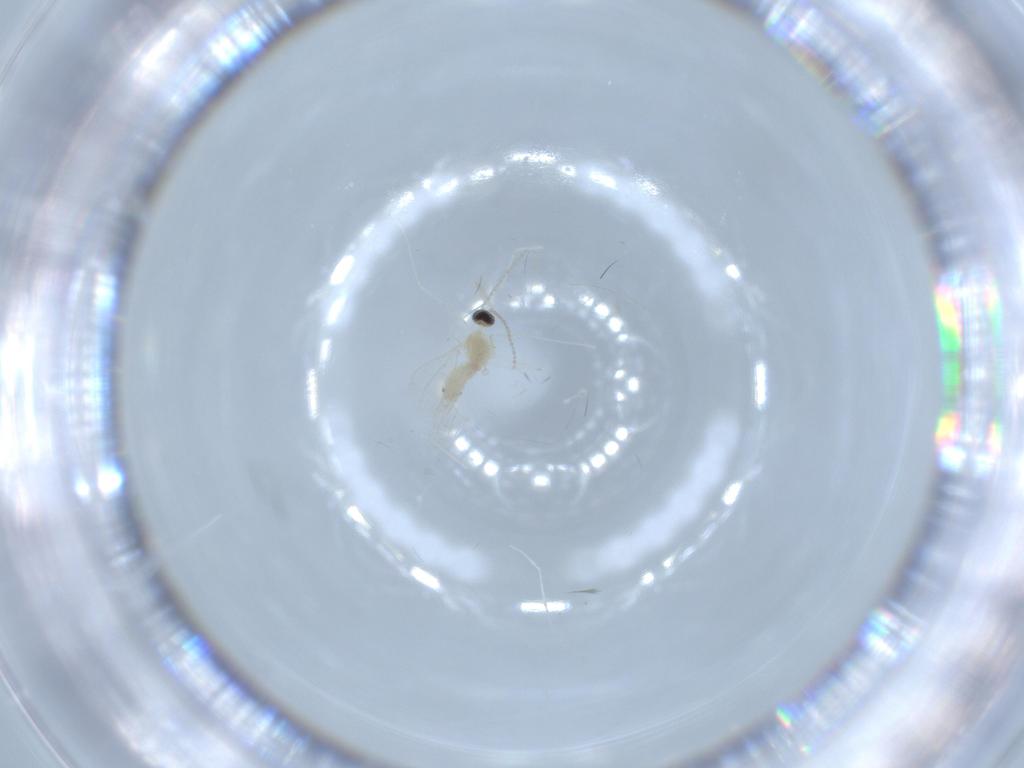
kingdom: Animalia
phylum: Arthropoda
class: Insecta
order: Diptera
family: Cecidomyiidae
